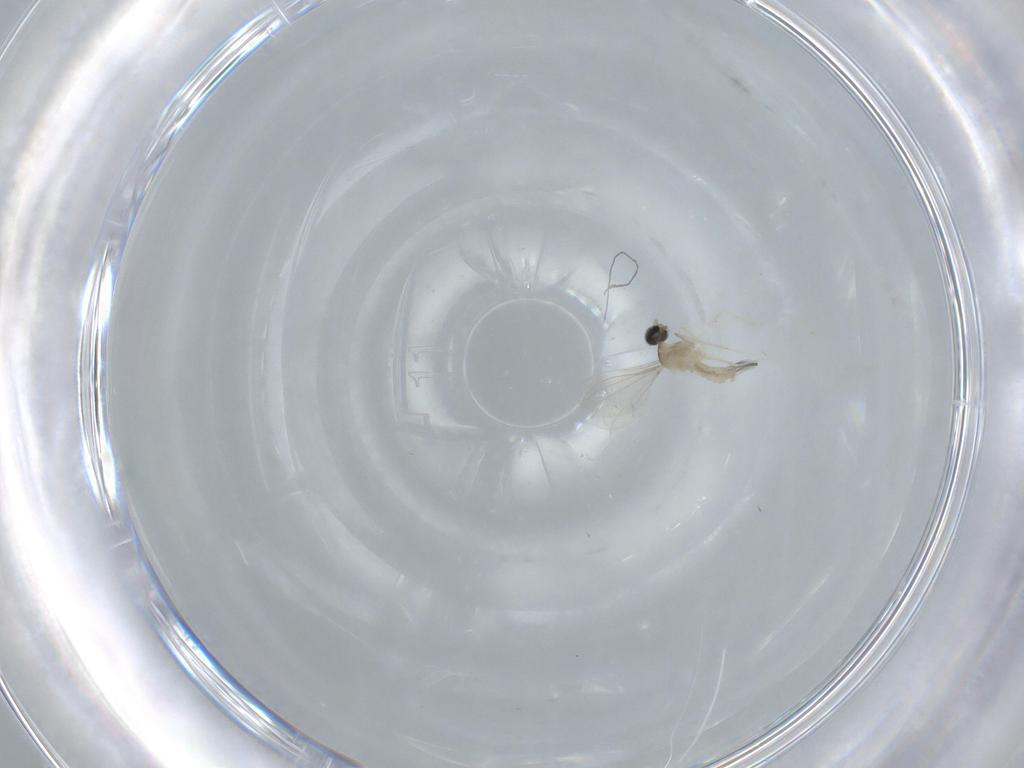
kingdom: Animalia
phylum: Arthropoda
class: Insecta
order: Diptera
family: Cecidomyiidae
